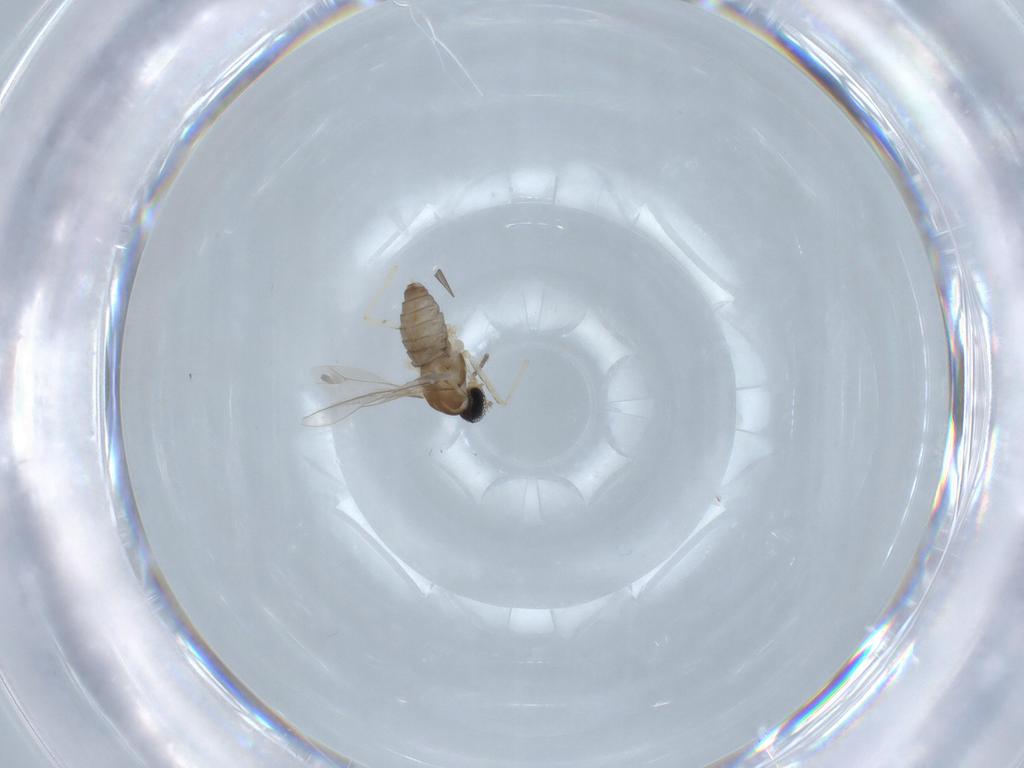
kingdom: Animalia
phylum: Arthropoda
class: Insecta
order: Diptera
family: Cecidomyiidae
